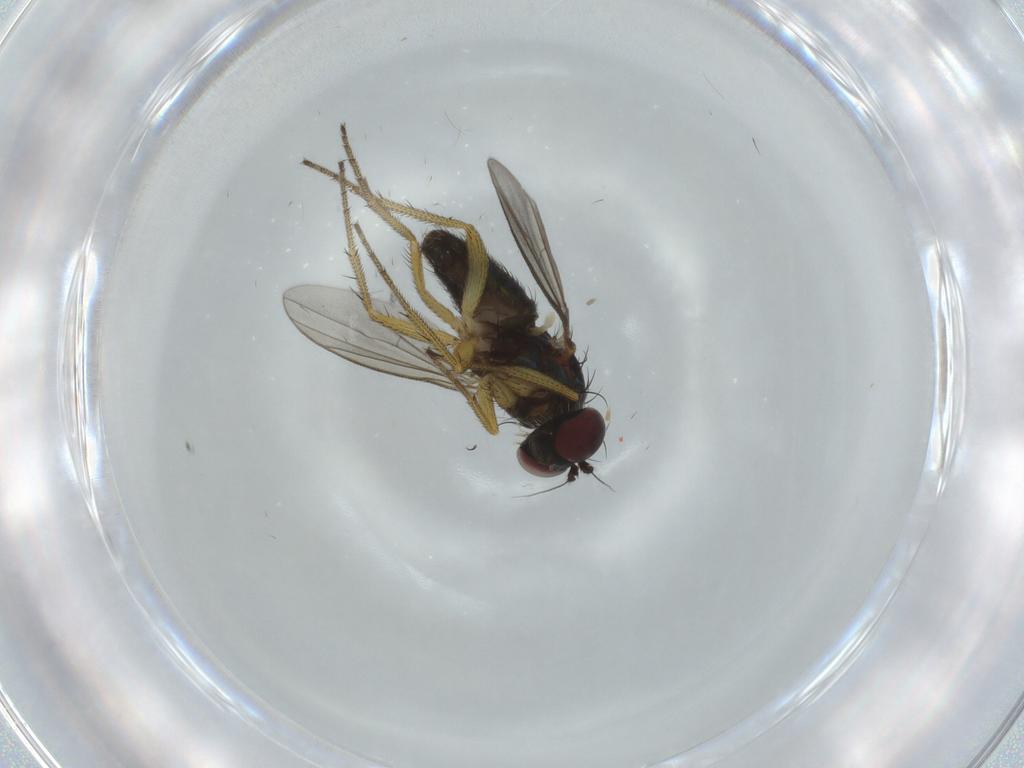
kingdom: Animalia
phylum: Arthropoda
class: Insecta
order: Diptera
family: Dolichopodidae
